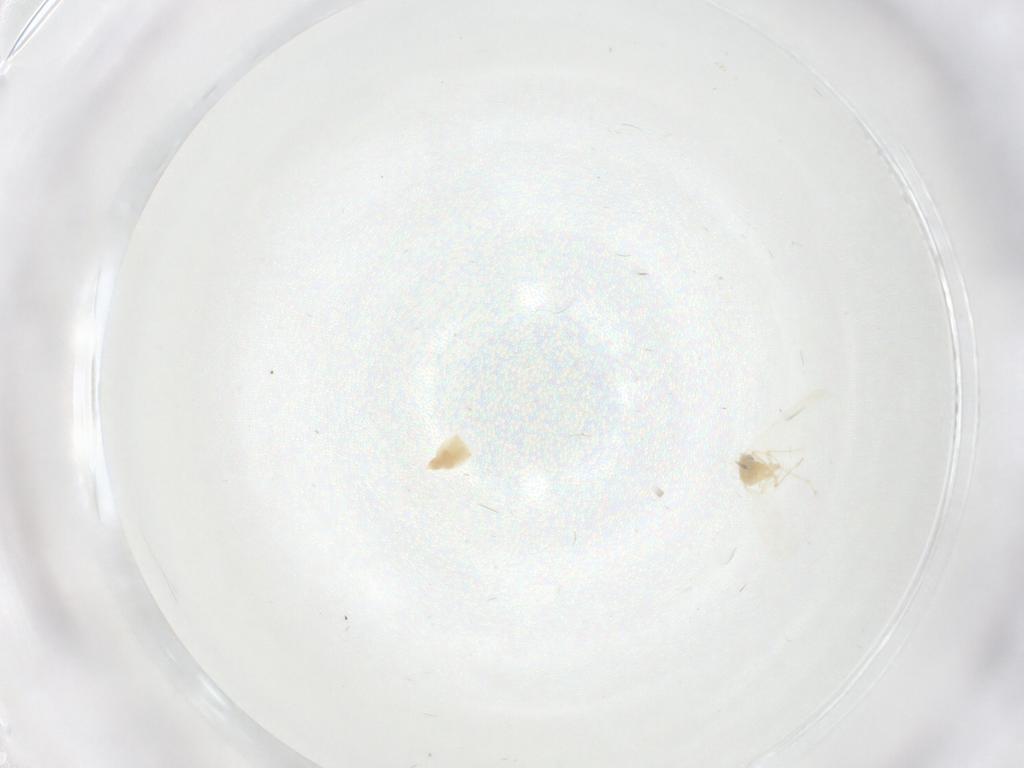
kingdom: Animalia
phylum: Arthropoda
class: Insecta
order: Hemiptera
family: Aleyrodidae
